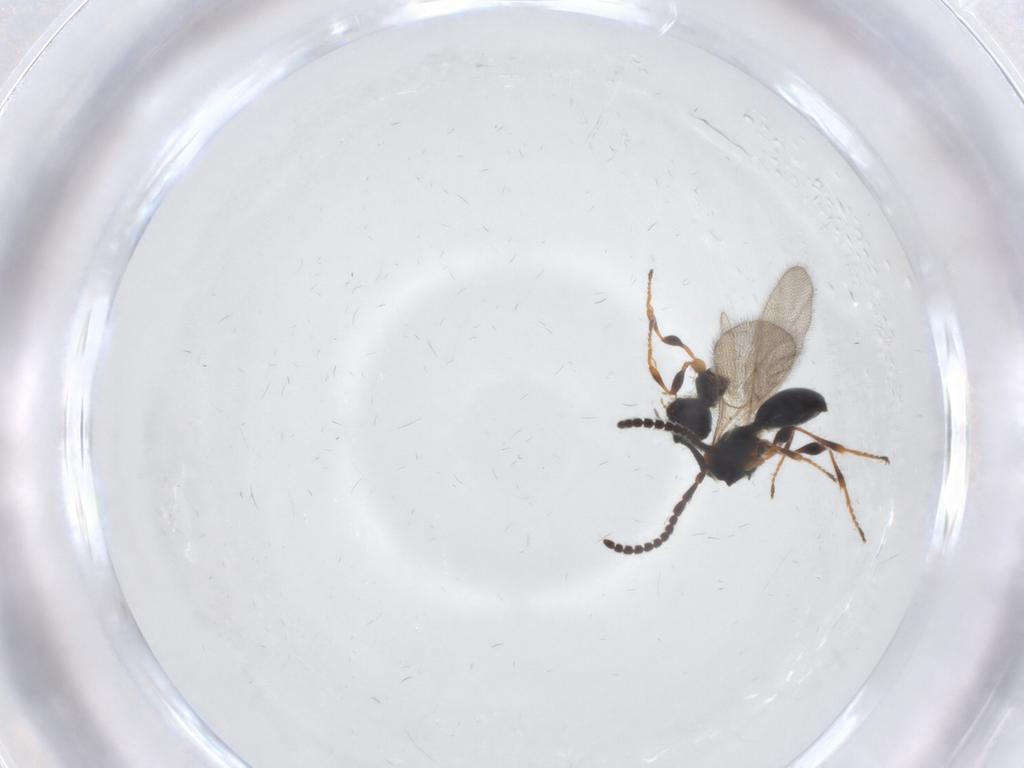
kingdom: Animalia
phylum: Arthropoda
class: Insecta
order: Hymenoptera
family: Diapriidae
